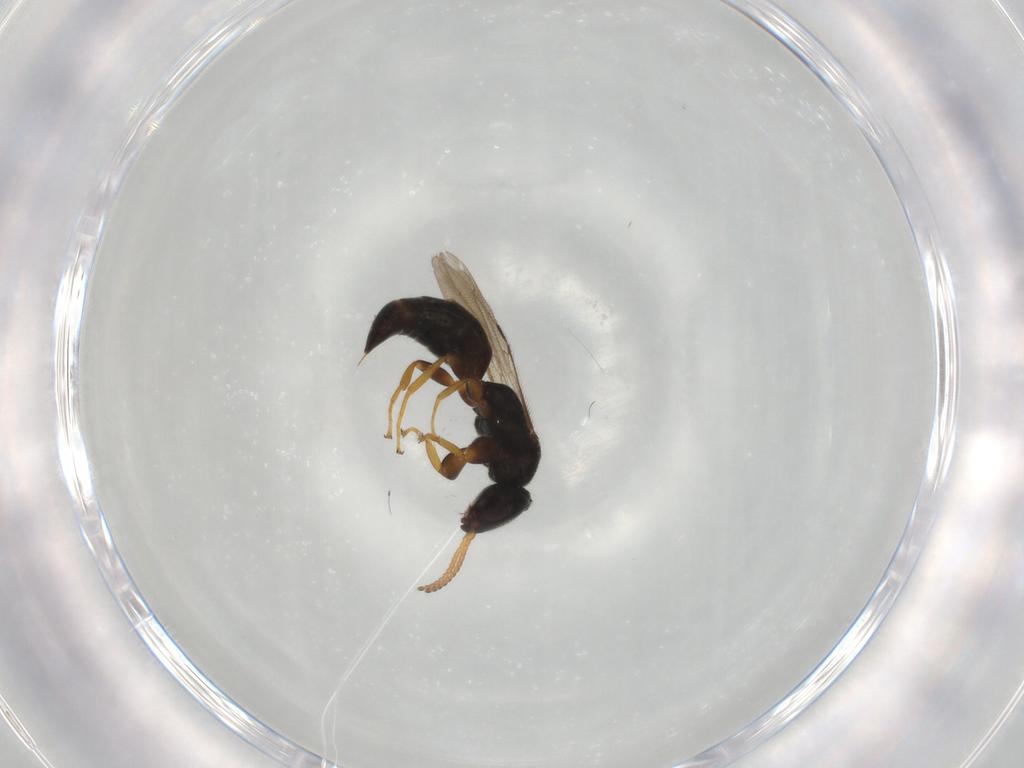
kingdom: Animalia
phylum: Arthropoda
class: Insecta
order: Hymenoptera
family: Bethylidae
